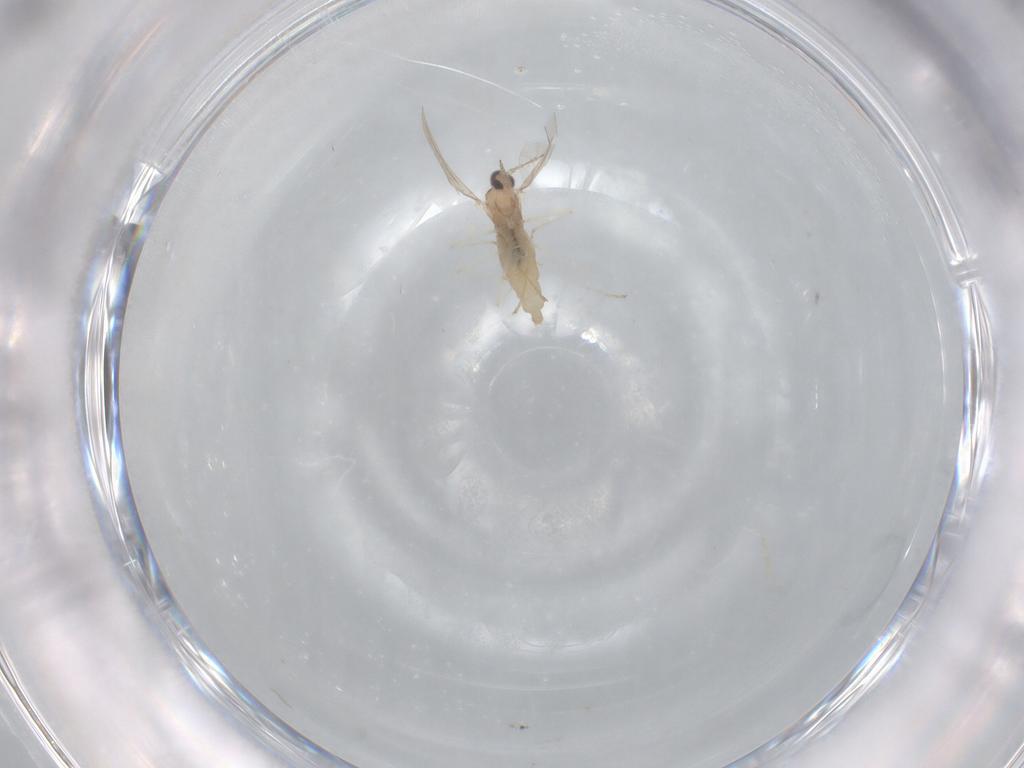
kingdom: Animalia
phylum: Arthropoda
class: Insecta
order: Diptera
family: Cecidomyiidae
